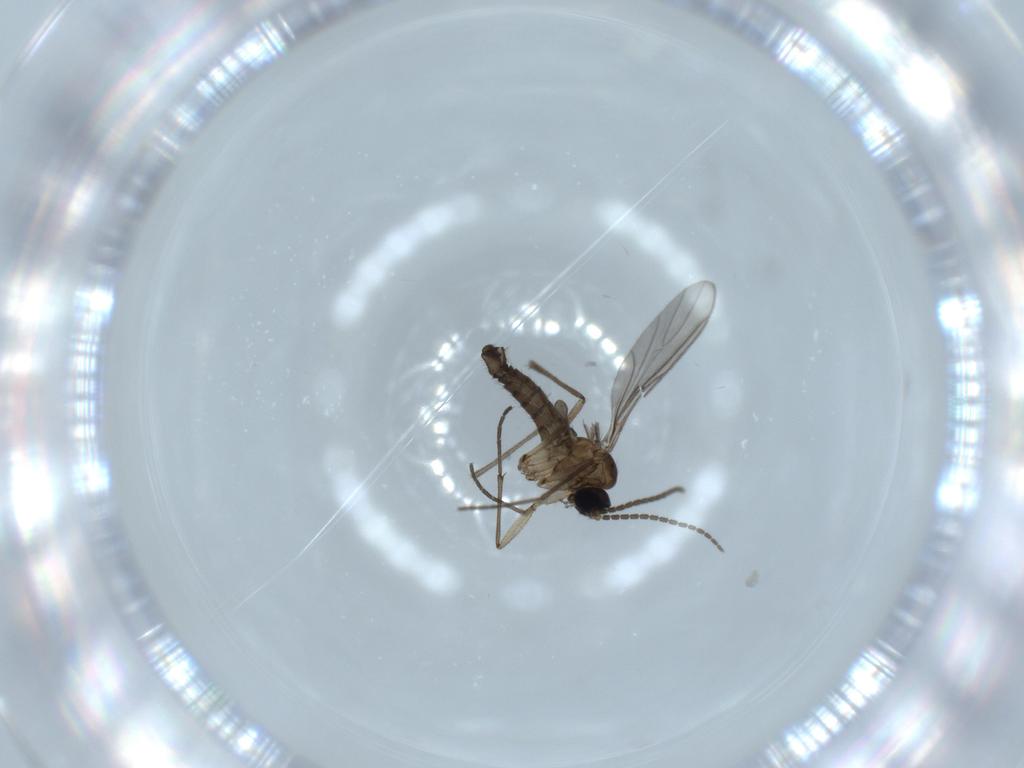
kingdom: Animalia
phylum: Arthropoda
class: Insecta
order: Diptera
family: Sciaridae
